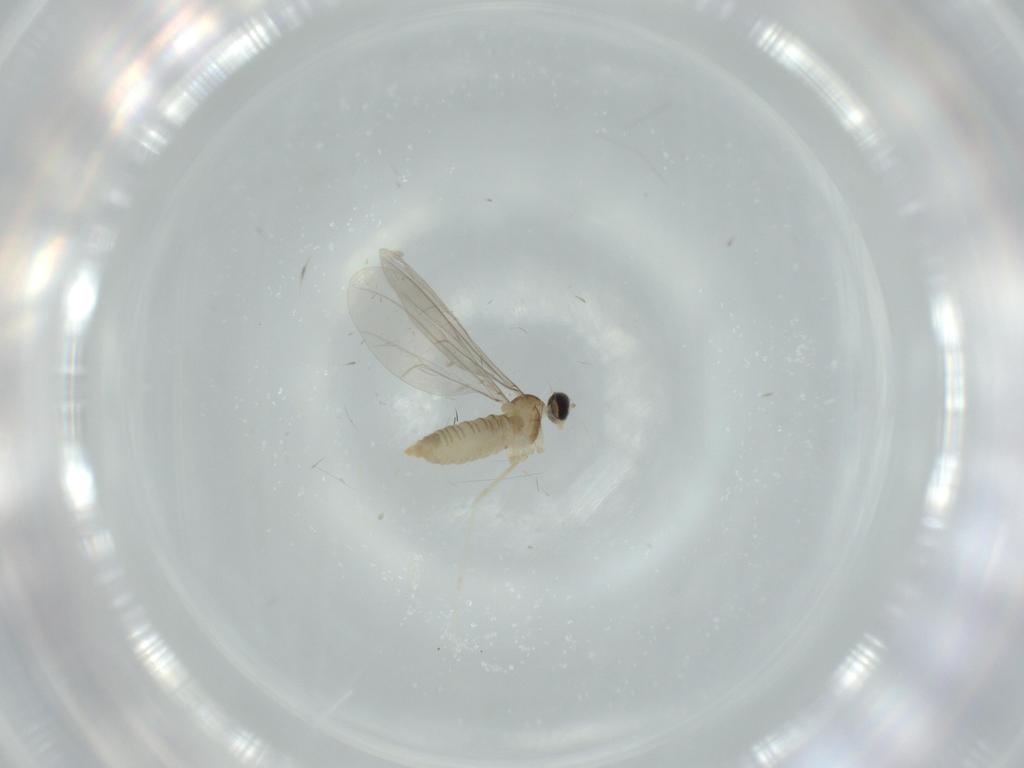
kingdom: Animalia
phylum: Arthropoda
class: Insecta
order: Diptera
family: Cecidomyiidae
